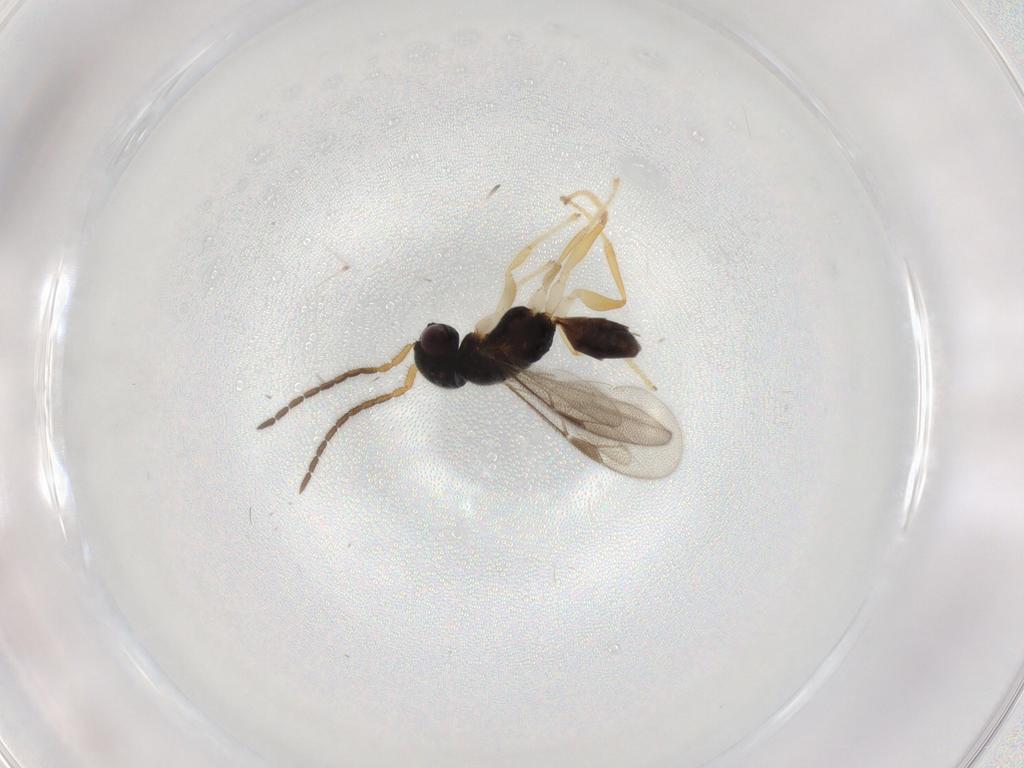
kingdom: Animalia
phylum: Arthropoda
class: Insecta
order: Hymenoptera
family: Dryinidae
